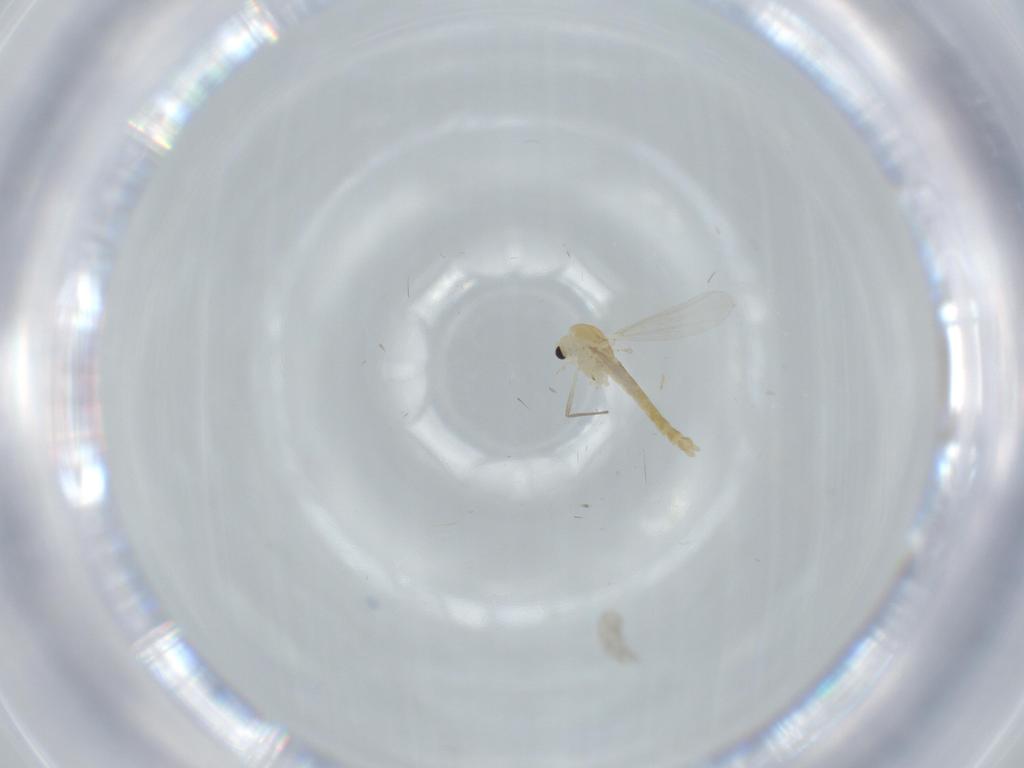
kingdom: Animalia
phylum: Arthropoda
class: Insecta
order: Diptera
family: Chironomidae
